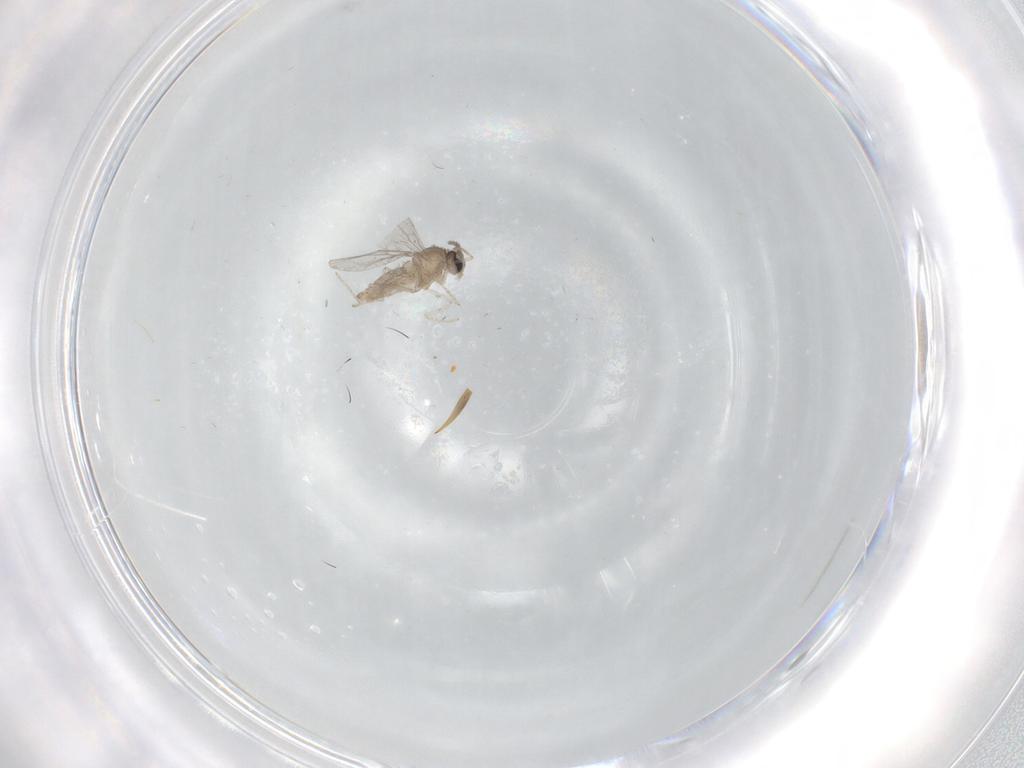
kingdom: Animalia
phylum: Arthropoda
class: Insecta
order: Diptera
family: Cecidomyiidae
